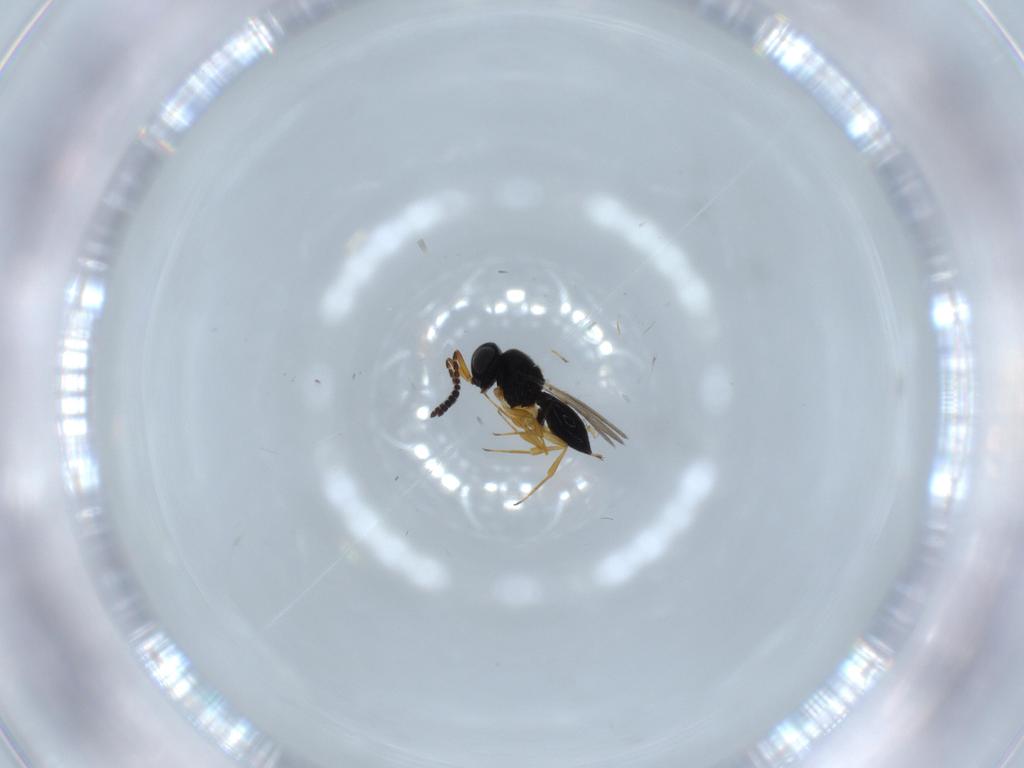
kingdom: Animalia
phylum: Arthropoda
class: Insecta
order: Hymenoptera
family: Scelionidae
